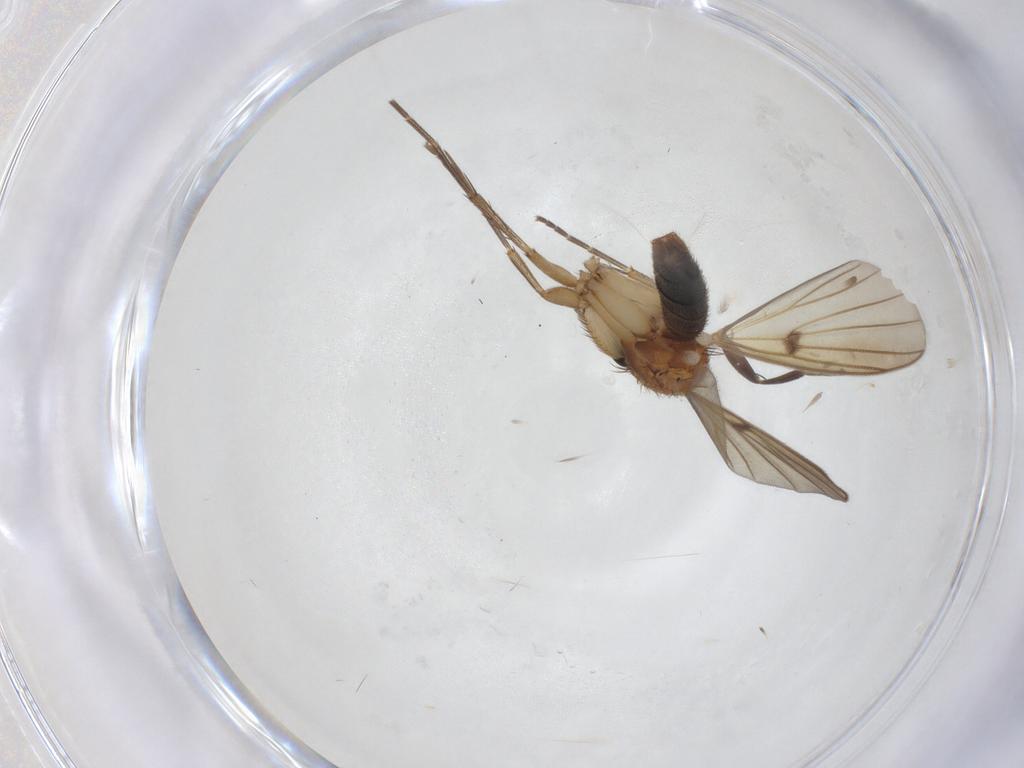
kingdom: Animalia
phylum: Arthropoda
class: Insecta
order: Diptera
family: Phoridae
